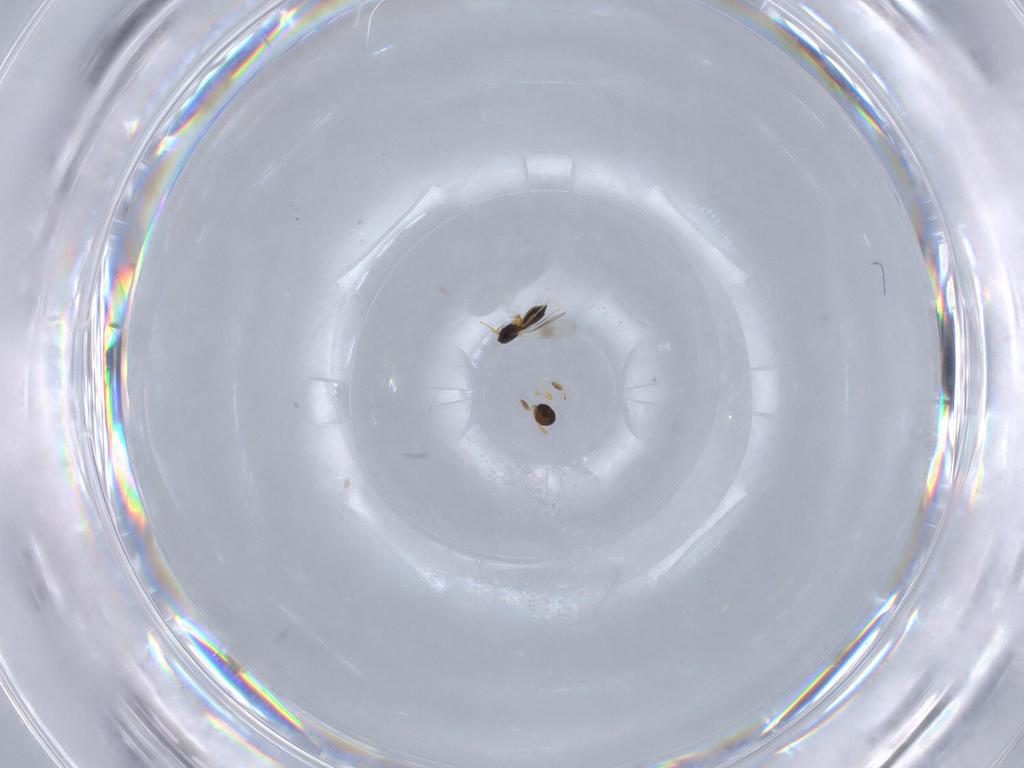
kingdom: Animalia
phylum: Arthropoda
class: Insecta
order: Hymenoptera
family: Platygastridae
